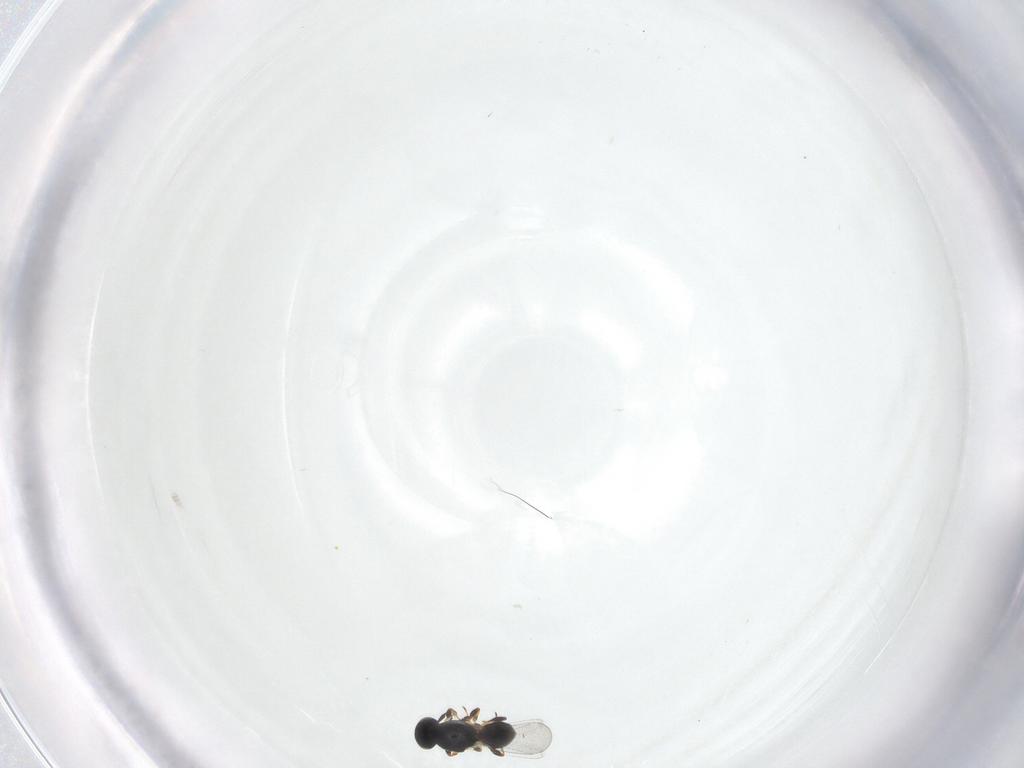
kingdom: Animalia
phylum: Arthropoda
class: Insecta
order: Hymenoptera
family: Platygastridae
